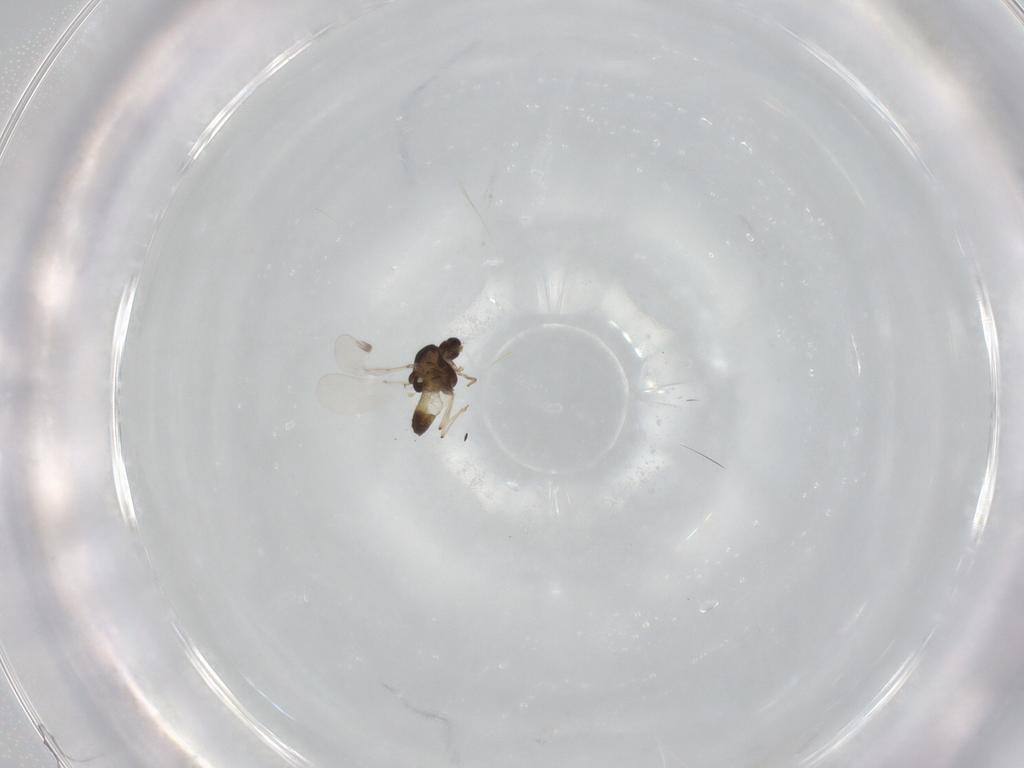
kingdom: Animalia
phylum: Arthropoda
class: Insecta
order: Diptera
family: Chironomidae
